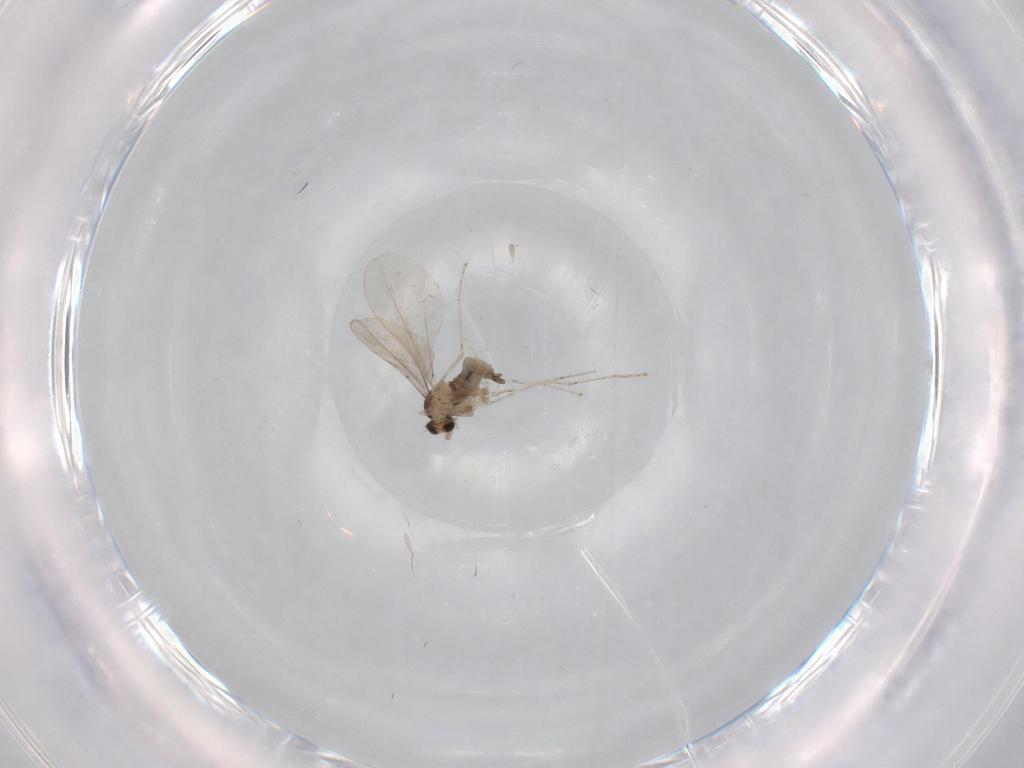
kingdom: Animalia
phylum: Arthropoda
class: Insecta
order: Diptera
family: Cecidomyiidae
